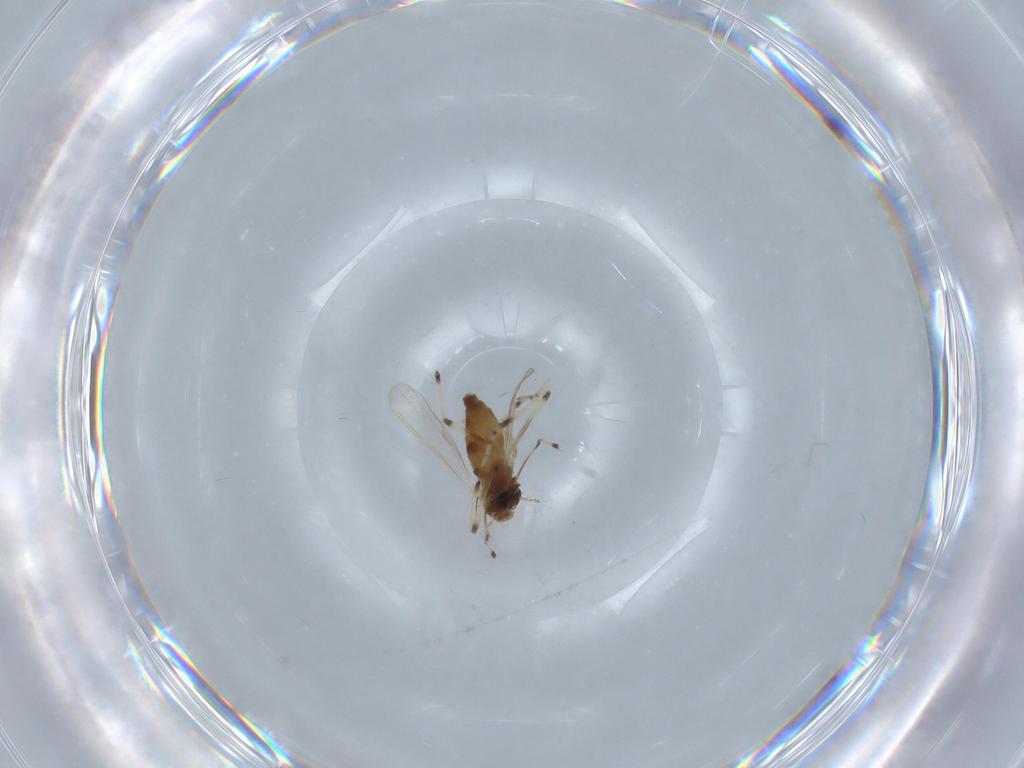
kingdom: Animalia
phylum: Arthropoda
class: Insecta
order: Diptera
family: Chironomidae
